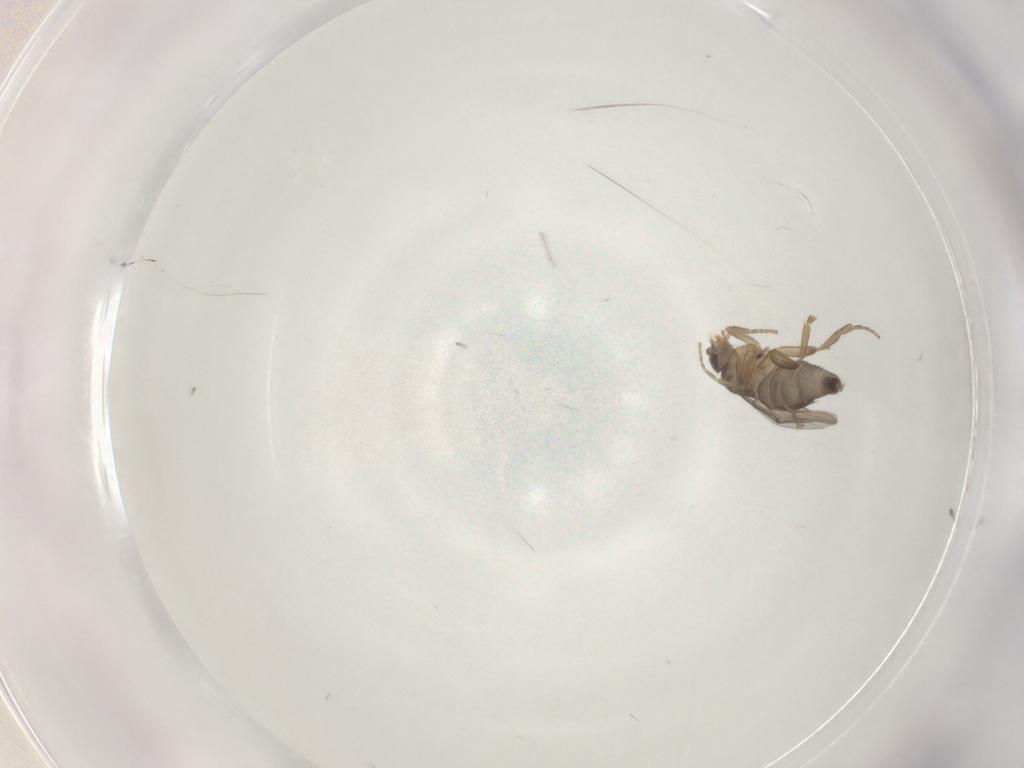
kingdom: Animalia
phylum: Arthropoda
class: Insecta
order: Diptera
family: Phoridae
